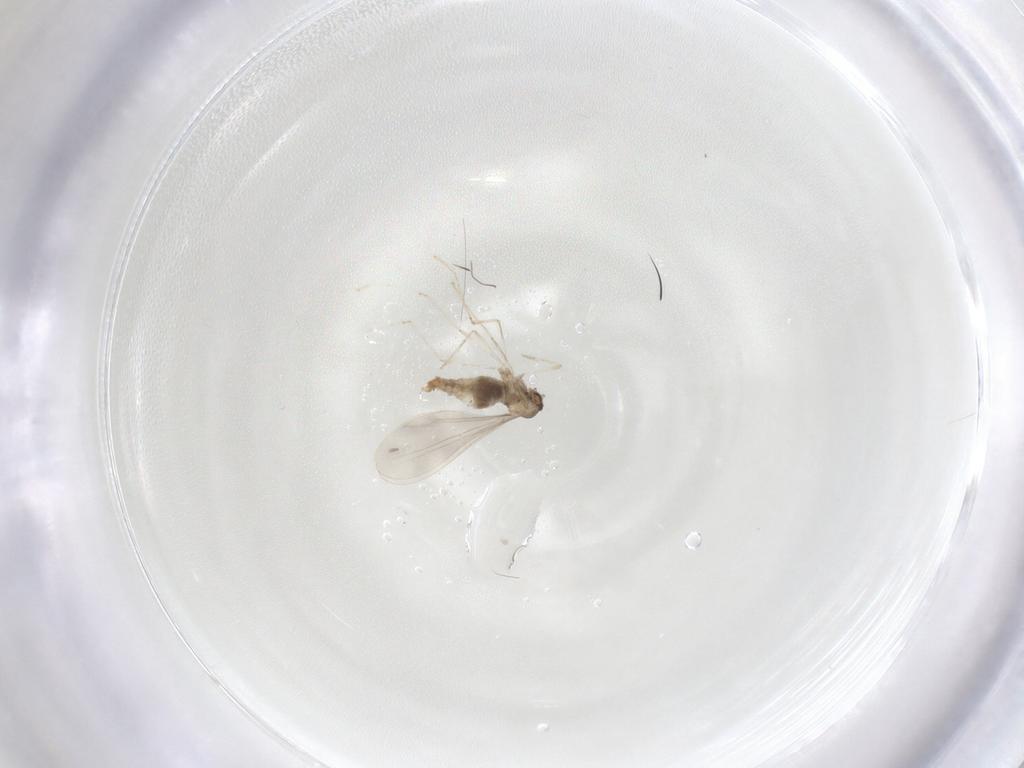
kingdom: Animalia
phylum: Arthropoda
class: Insecta
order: Diptera
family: Cecidomyiidae
